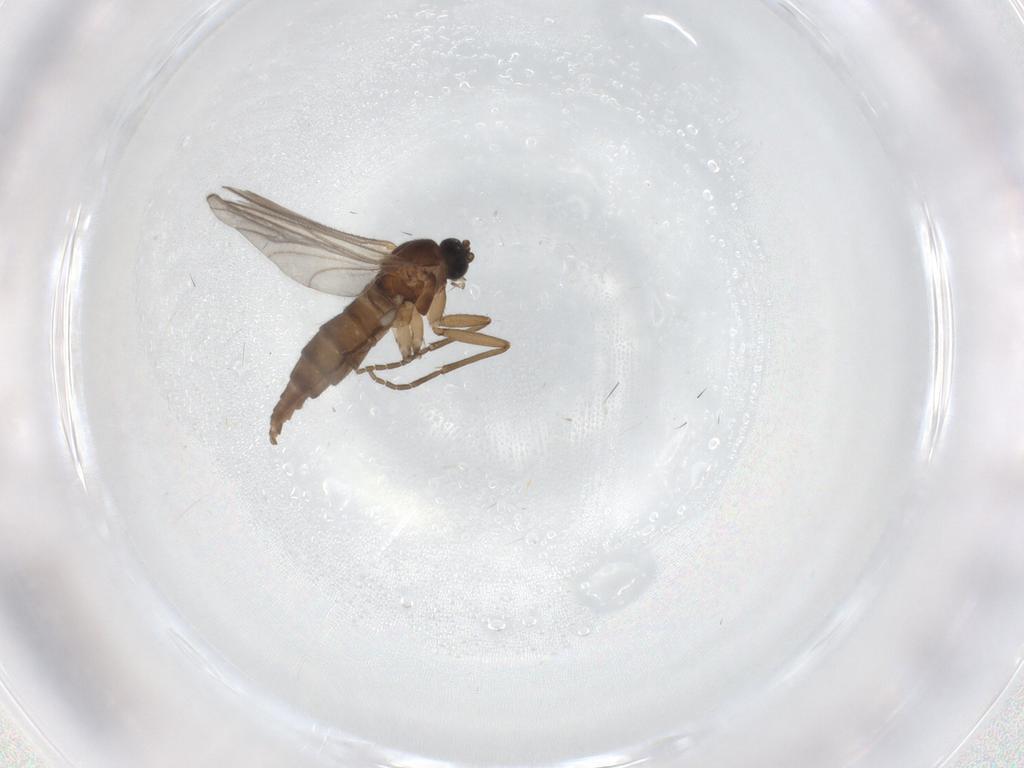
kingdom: Animalia
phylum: Arthropoda
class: Insecta
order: Diptera
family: Sciaridae
